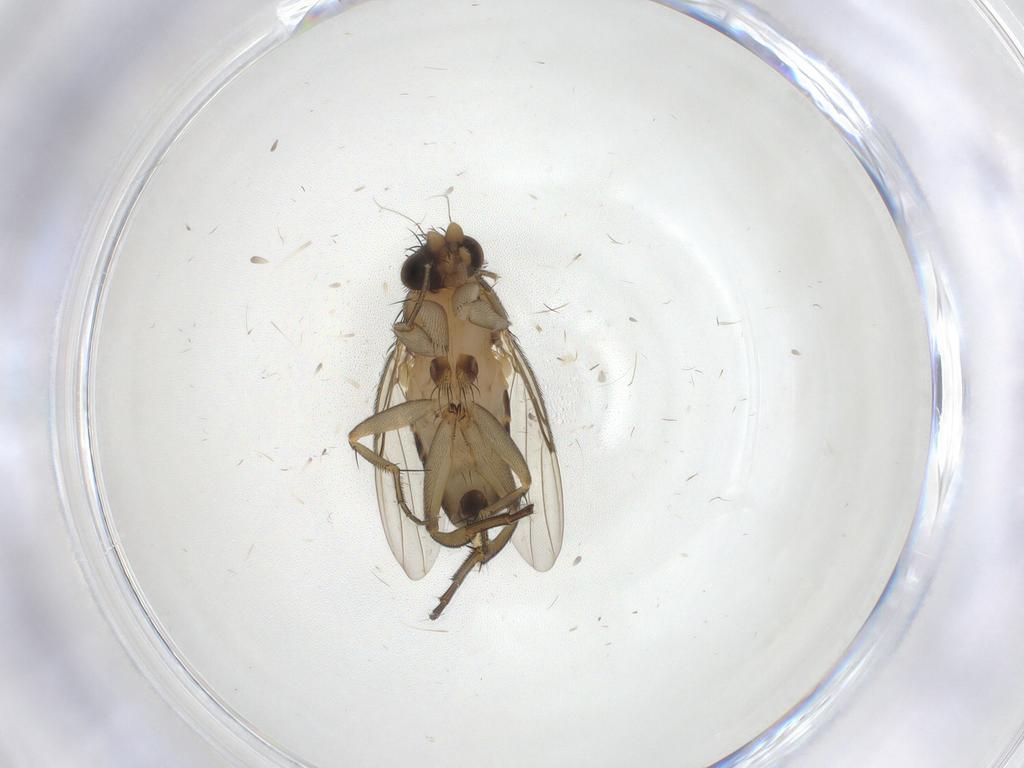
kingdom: Animalia
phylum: Arthropoda
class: Insecta
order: Diptera
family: Phoridae
